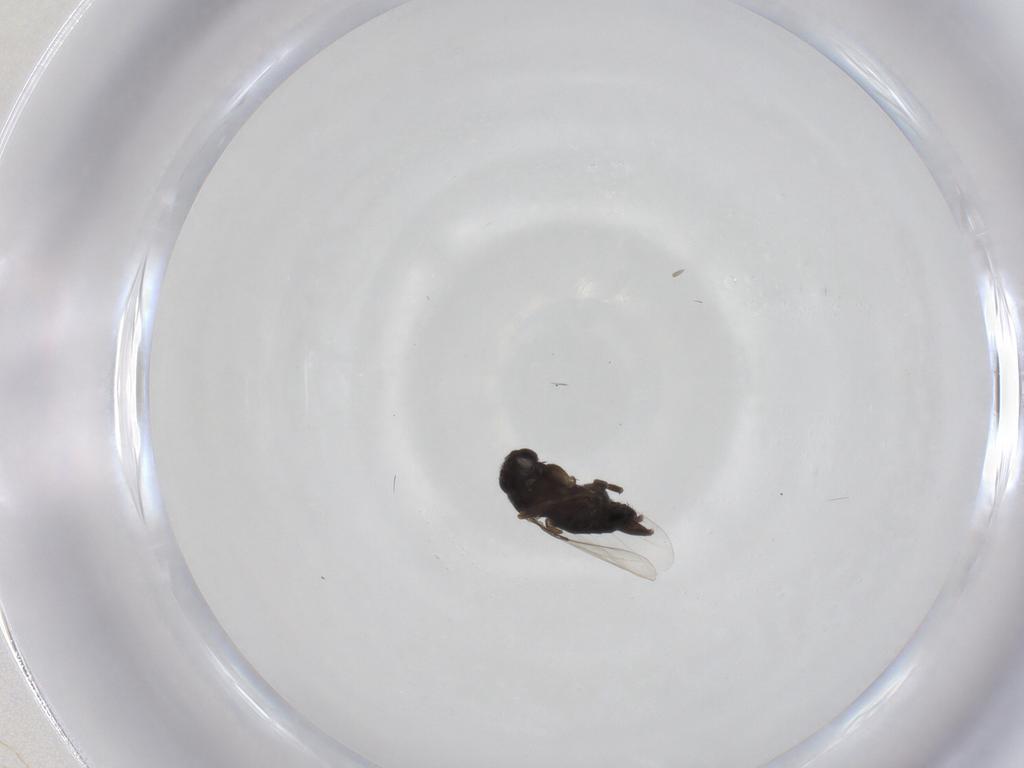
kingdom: Animalia
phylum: Arthropoda
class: Insecta
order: Diptera
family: Phoridae
